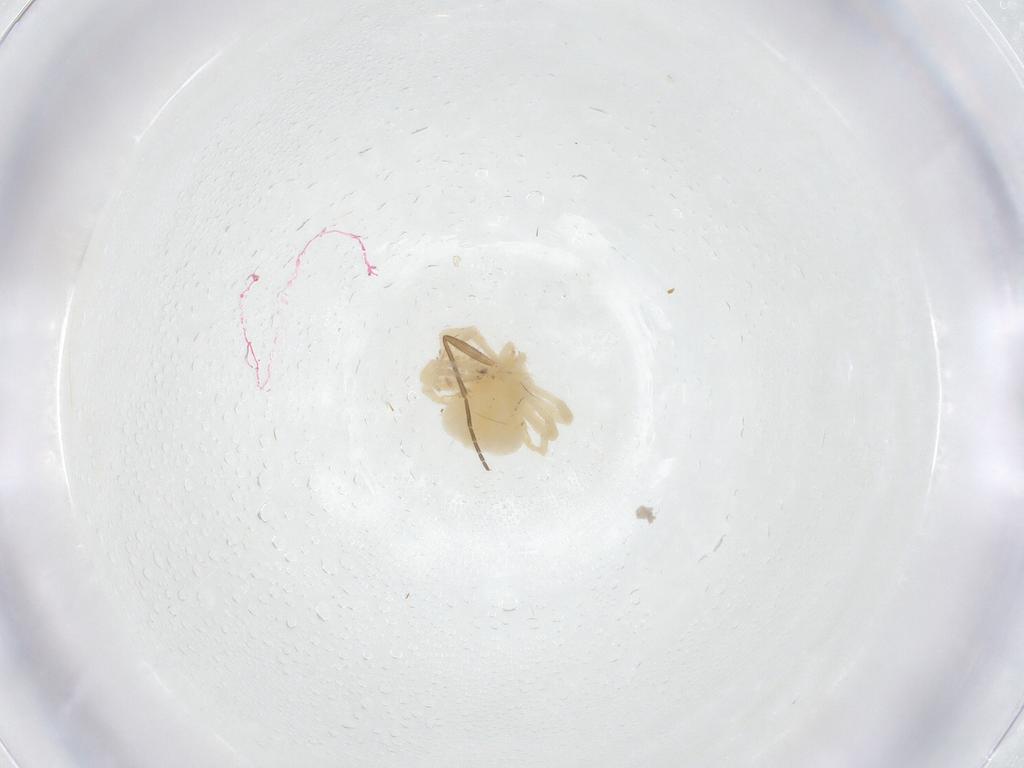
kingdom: Animalia
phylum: Arthropoda
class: Arachnida
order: Trombidiformes
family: Anystidae
